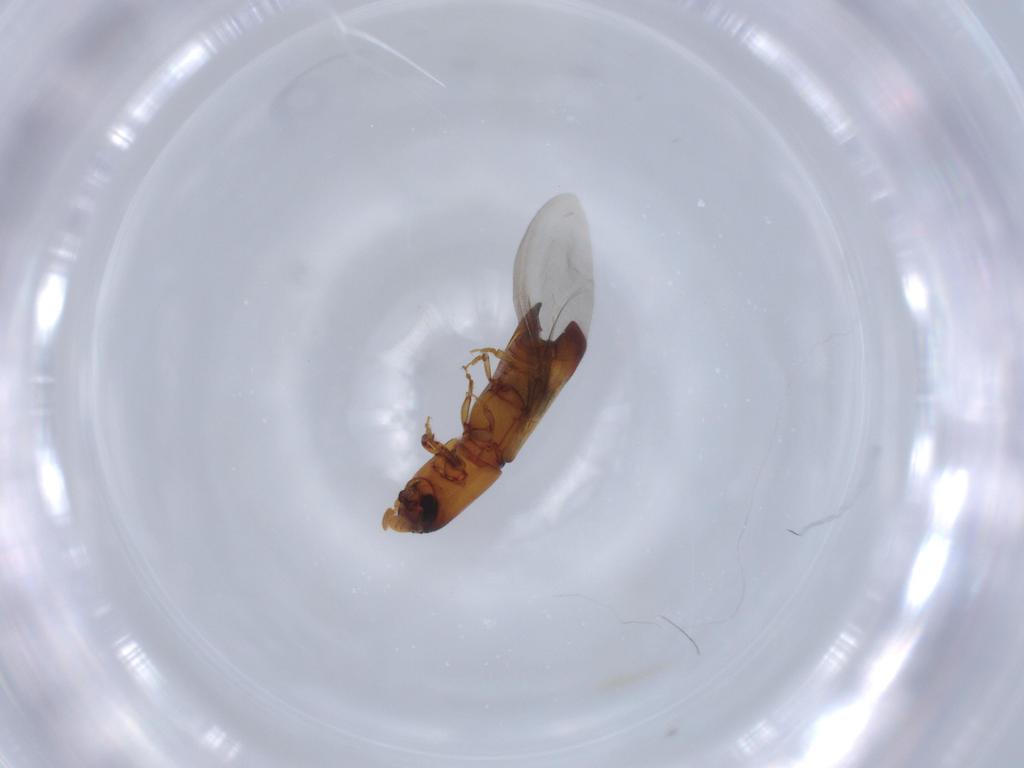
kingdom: Animalia
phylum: Arthropoda
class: Insecta
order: Coleoptera
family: Curculionidae
